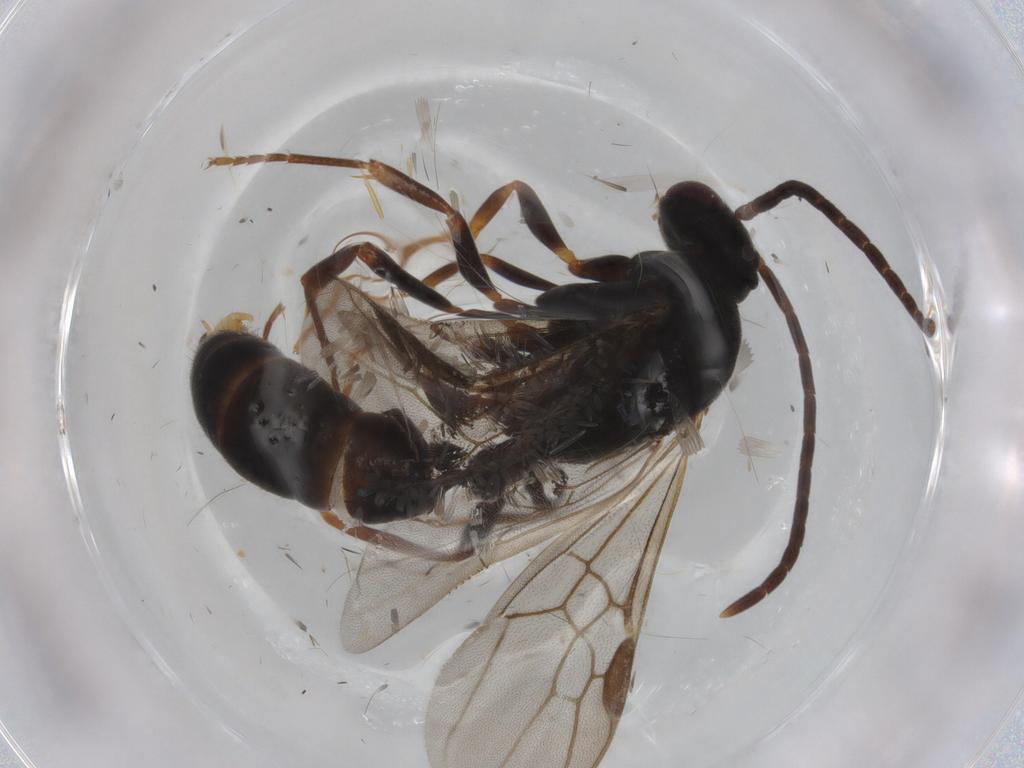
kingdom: Animalia
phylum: Arthropoda
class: Insecta
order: Hymenoptera
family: Formicidae
